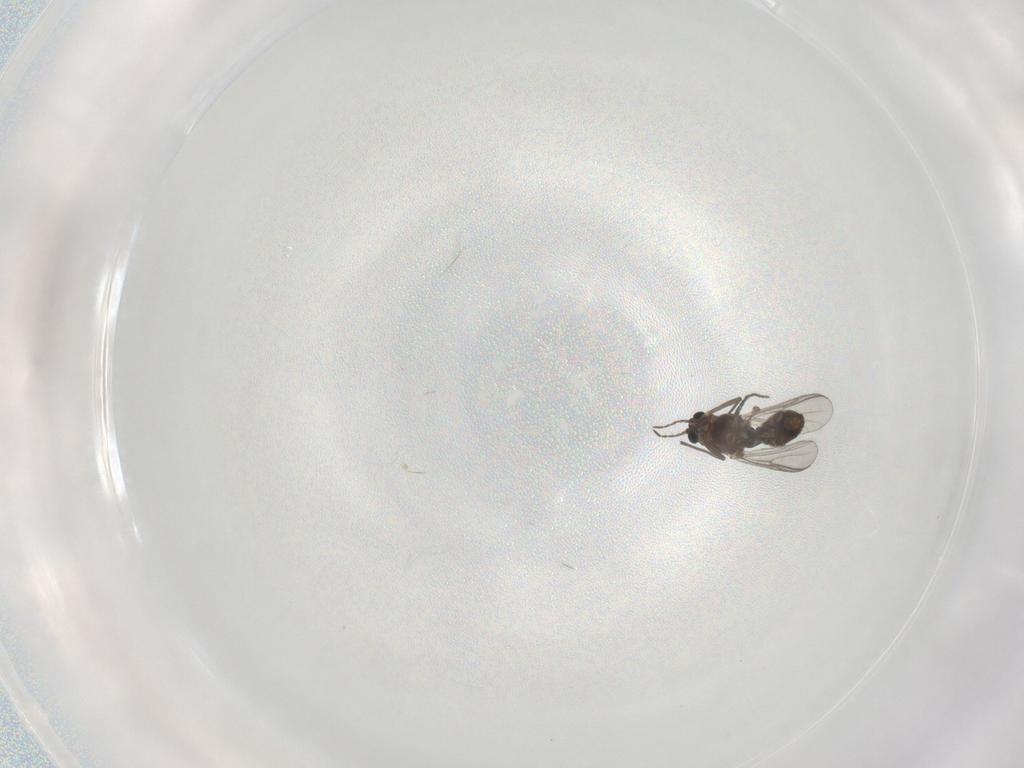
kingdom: Animalia
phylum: Arthropoda
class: Insecta
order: Diptera
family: Chironomidae
